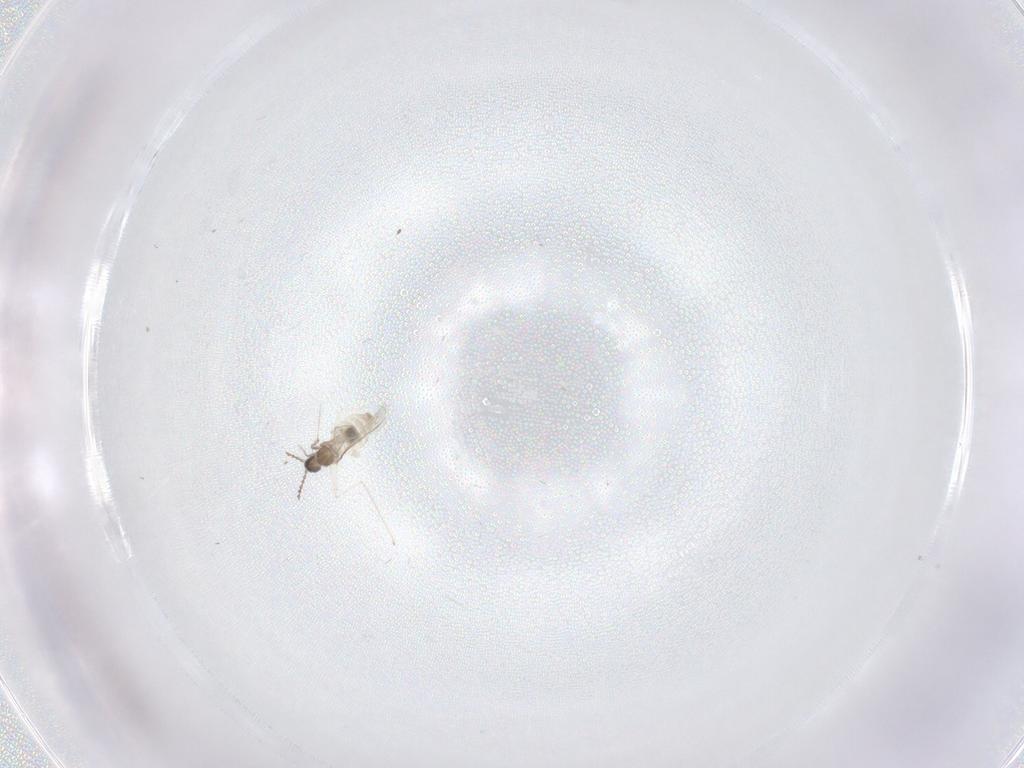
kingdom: Animalia
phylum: Arthropoda
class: Insecta
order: Diptera
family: Cecidomyiidae
